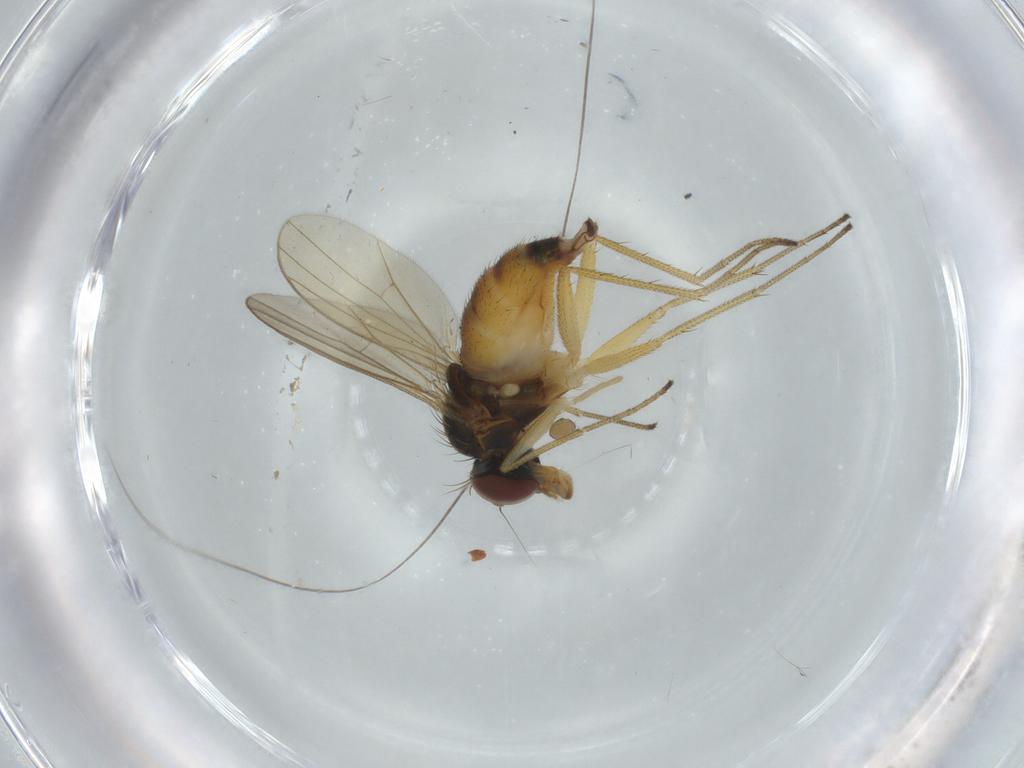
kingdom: Animalia
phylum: Arthropoda
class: Insecta
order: Diptera
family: Dolichopodidae
